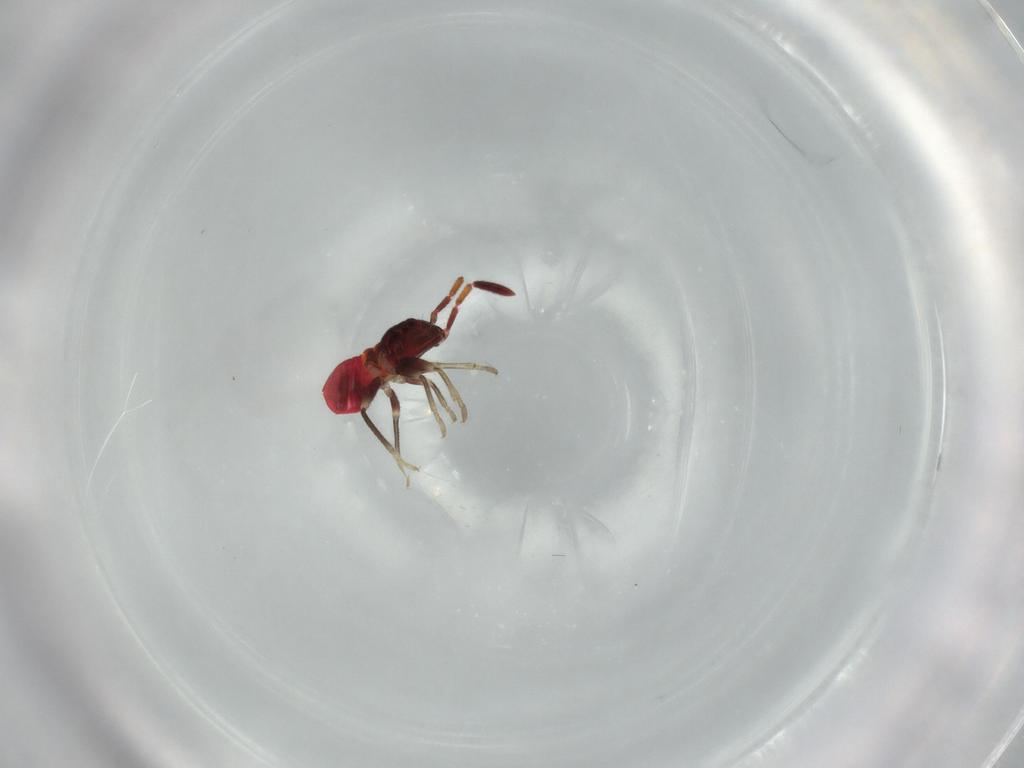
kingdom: Animalia
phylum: Arthropoda
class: Insecta
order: Hemiptera
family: Rhyparochromidae
